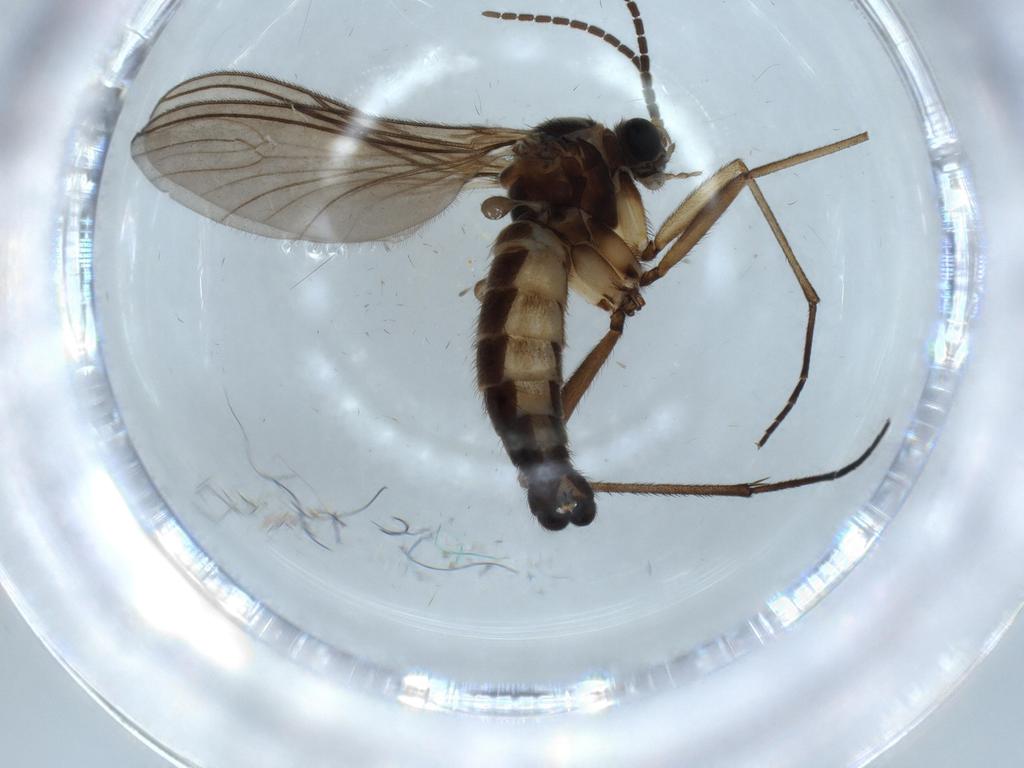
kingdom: Animalia
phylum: Arthropoda
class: Insecta
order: Diptera
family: Sciaridae
